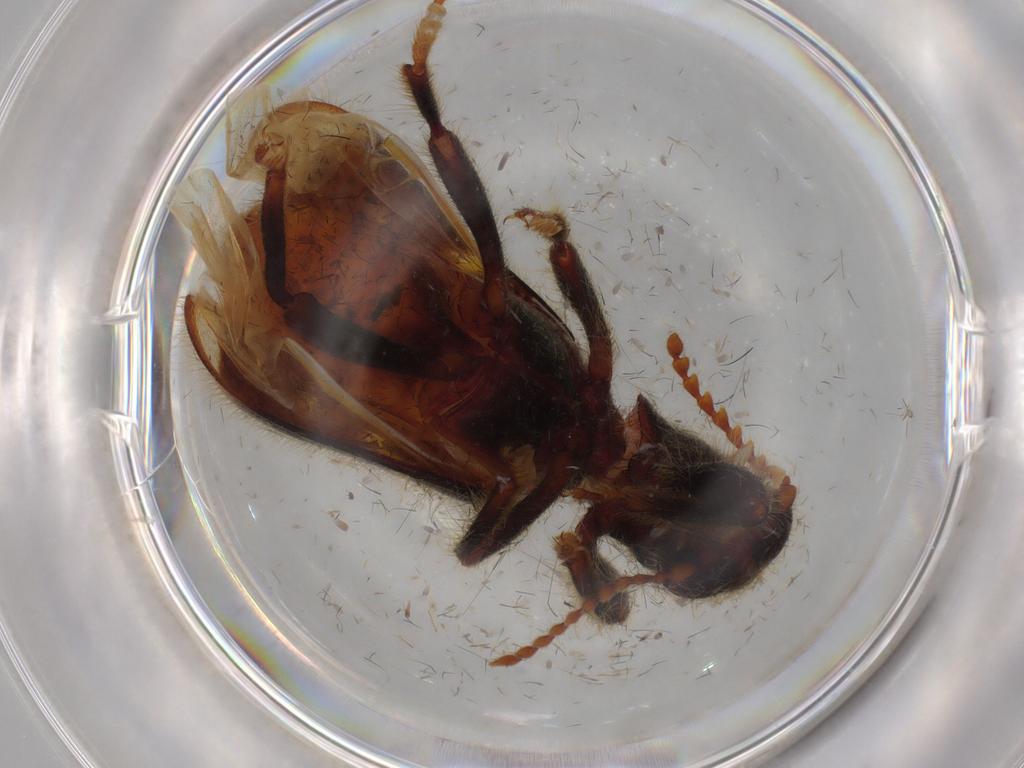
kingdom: Animalia
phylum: Arthropoda
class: Insecta
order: Coleoptera
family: Cleridae
